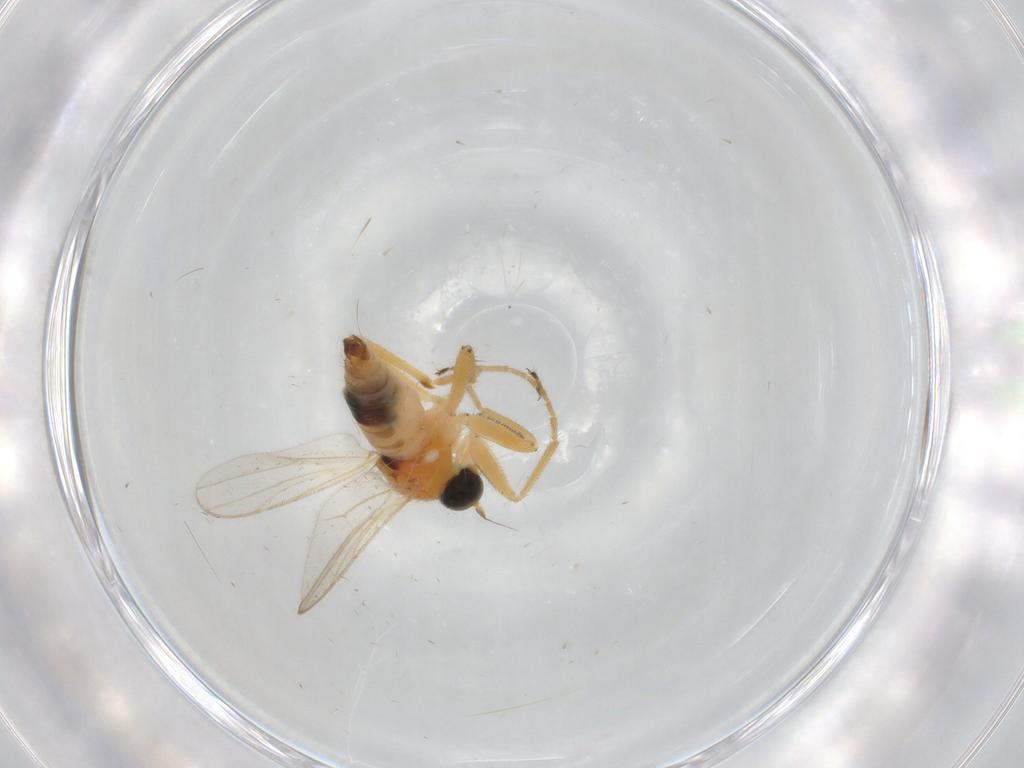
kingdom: Animalia
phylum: Arthropoda
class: Insecta
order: Diptera
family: Hybotidae
